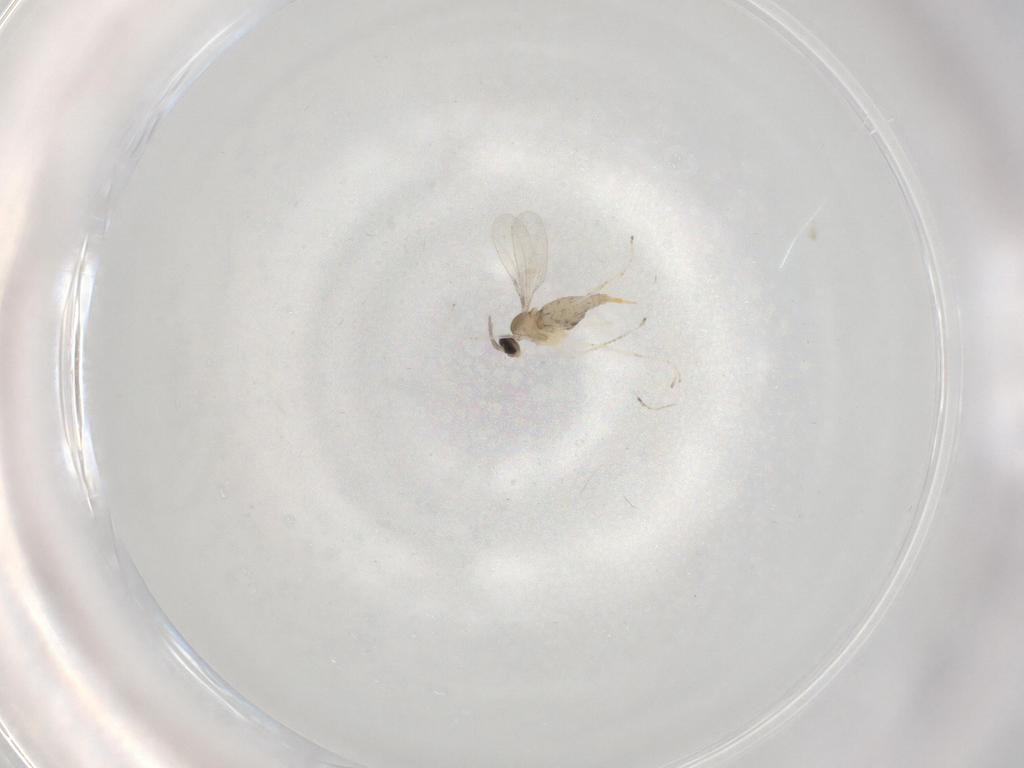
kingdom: Animalia
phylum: Arthropoda
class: Insecta
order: Diptera
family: Cecidomyiidae
